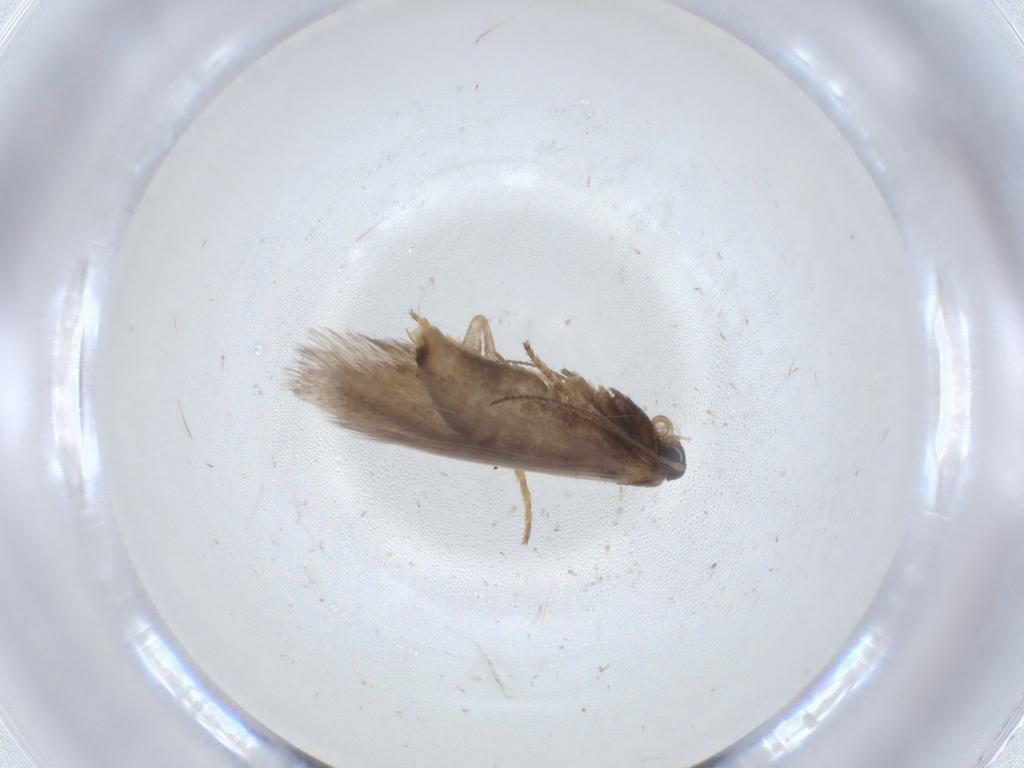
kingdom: Animalia
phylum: Arthropoda
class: Insecta
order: Lepidoptera
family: Nepticulidae
